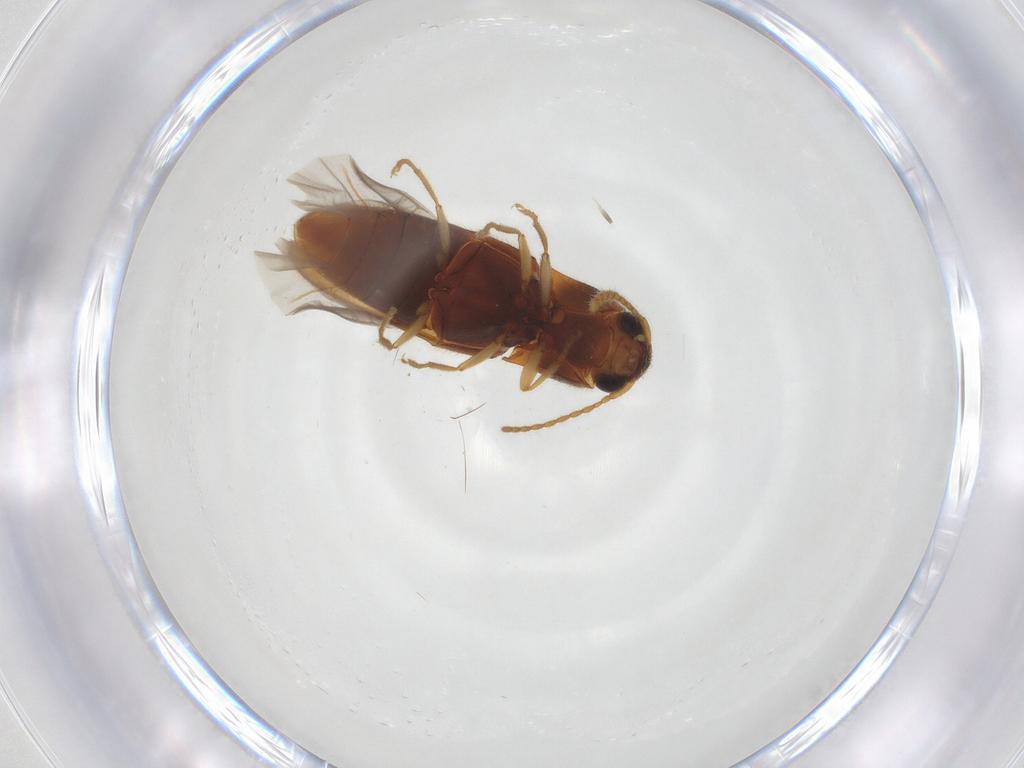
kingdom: Animalia
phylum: Arthropoda
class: Insecta
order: Coleoptera
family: Elateridae
